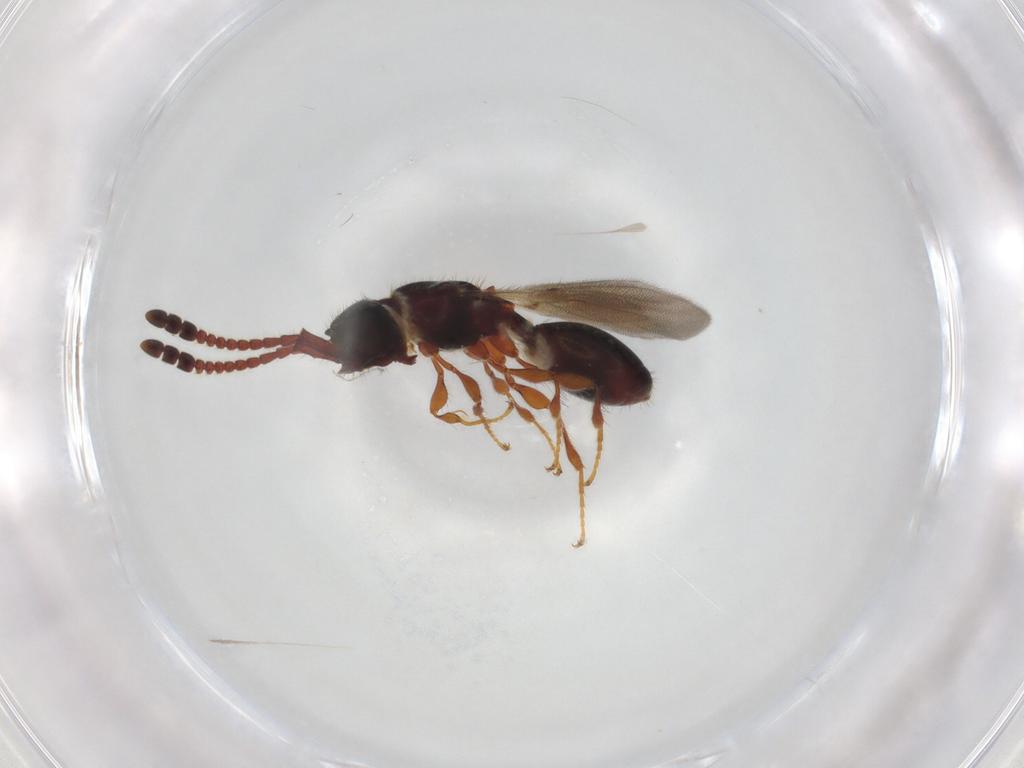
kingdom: Animalia
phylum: Arthropoda
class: Insecta
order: Hymenoptera
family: Diapriidae
